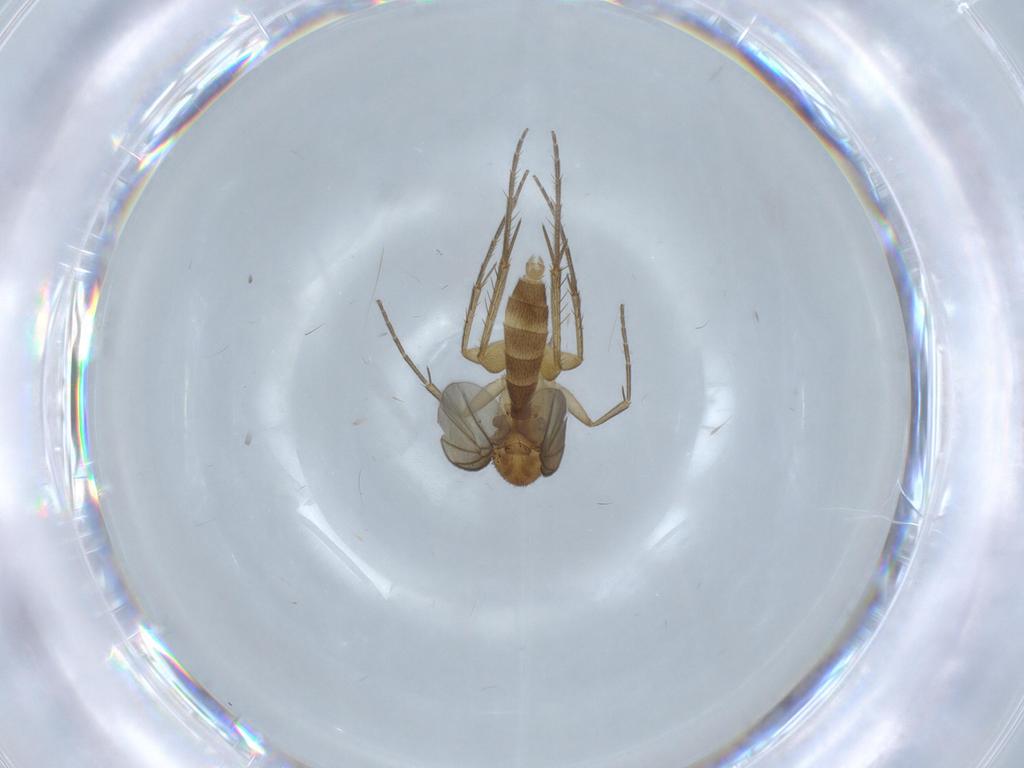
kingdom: Animalia
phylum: Arthropoda
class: Insecta
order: Diptera
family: Mycetophilidae
